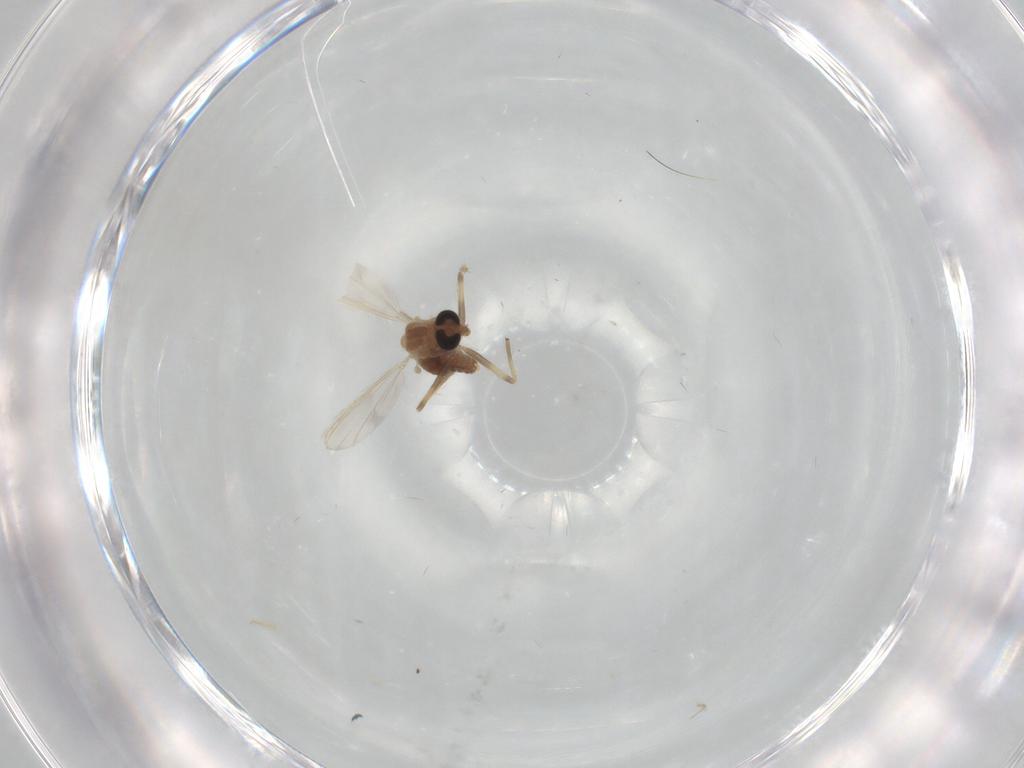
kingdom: Animalia
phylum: Arthropoda
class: Insecta
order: Diptera
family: Chironomidae
